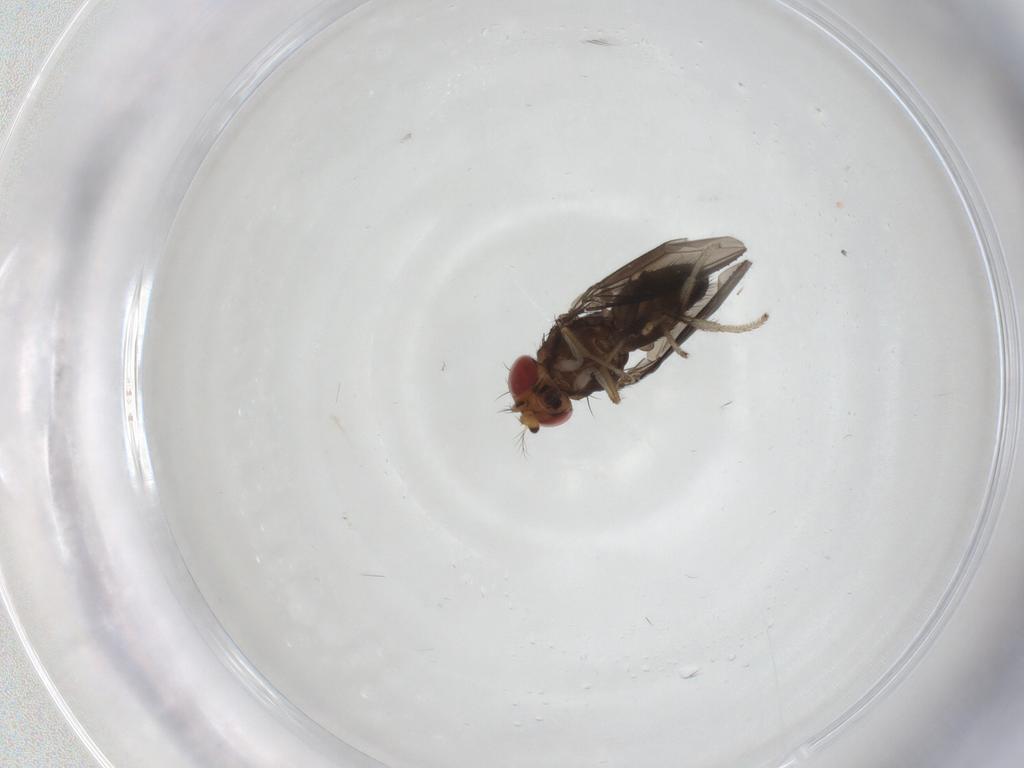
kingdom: Animalia
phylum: Arthropoda
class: Insecta
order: Diptera
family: Drosophilidae
